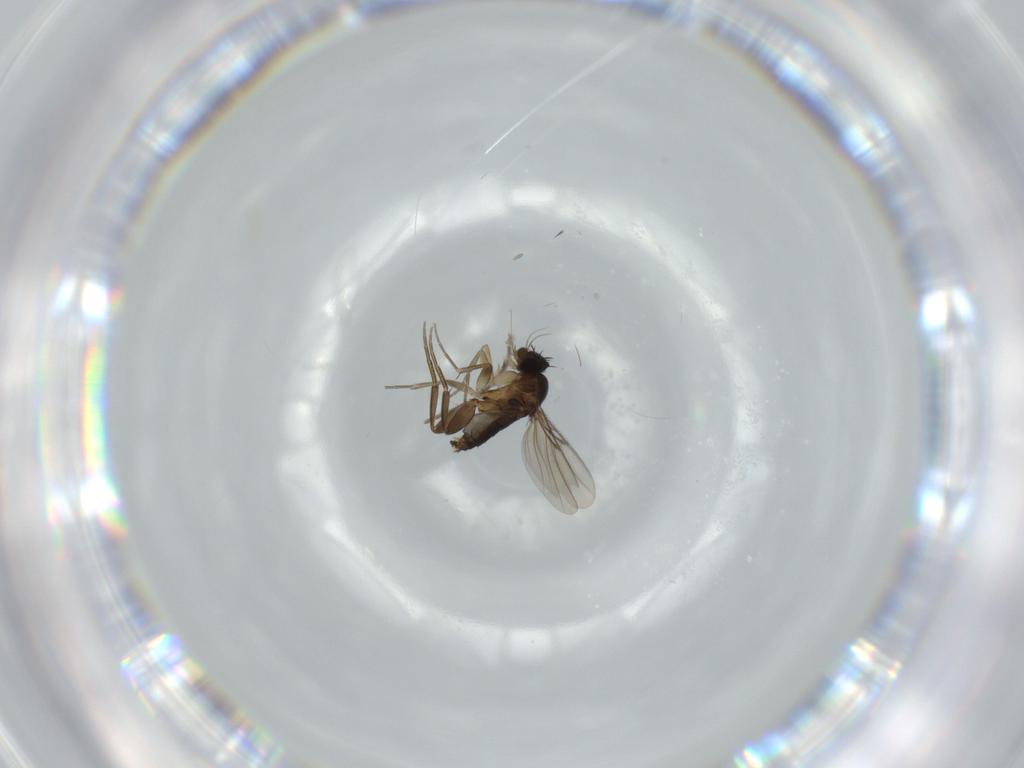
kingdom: Animalia
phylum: Arthropoda
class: Insecta
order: Diptera
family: Phoridae
